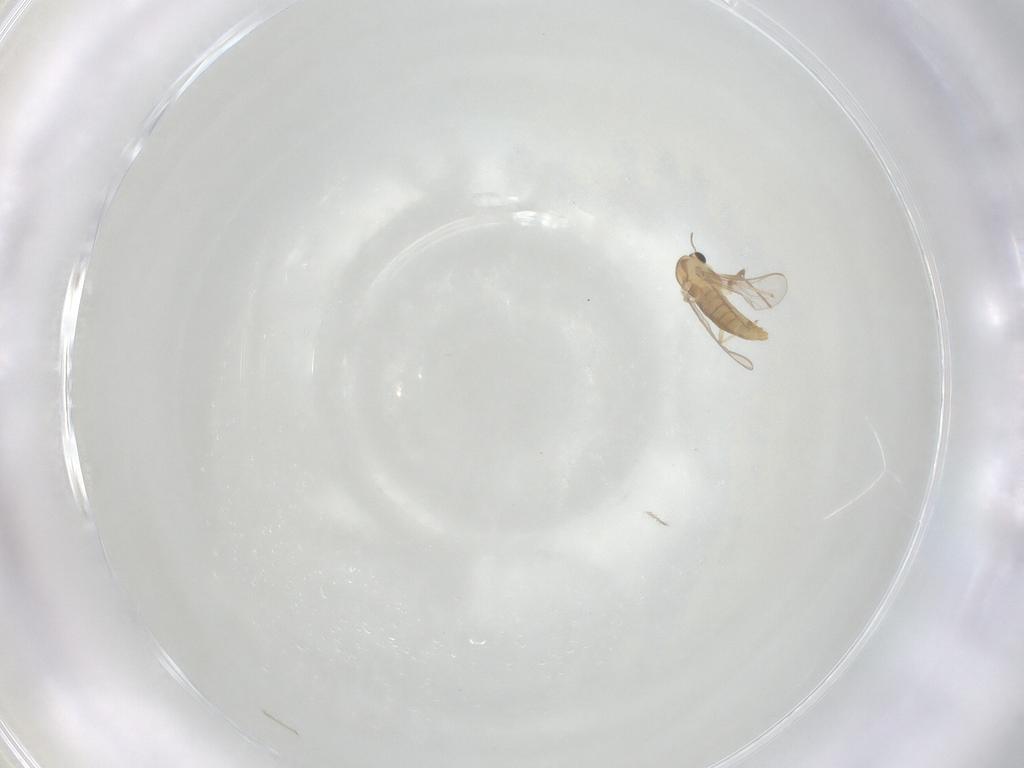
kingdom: Animalia
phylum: Arthropoda
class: Insecta
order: Diptera
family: Chironomidae
